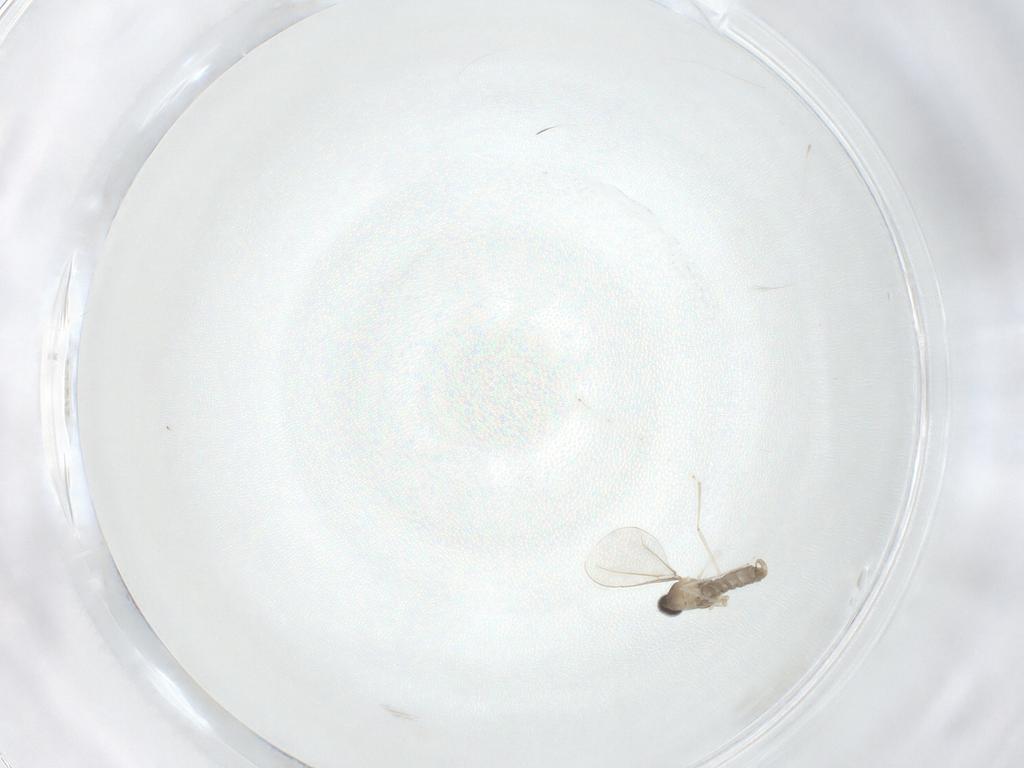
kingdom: Animalia
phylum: Arthropoda
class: Insecta
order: Diptera
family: Cecidomyiidae
